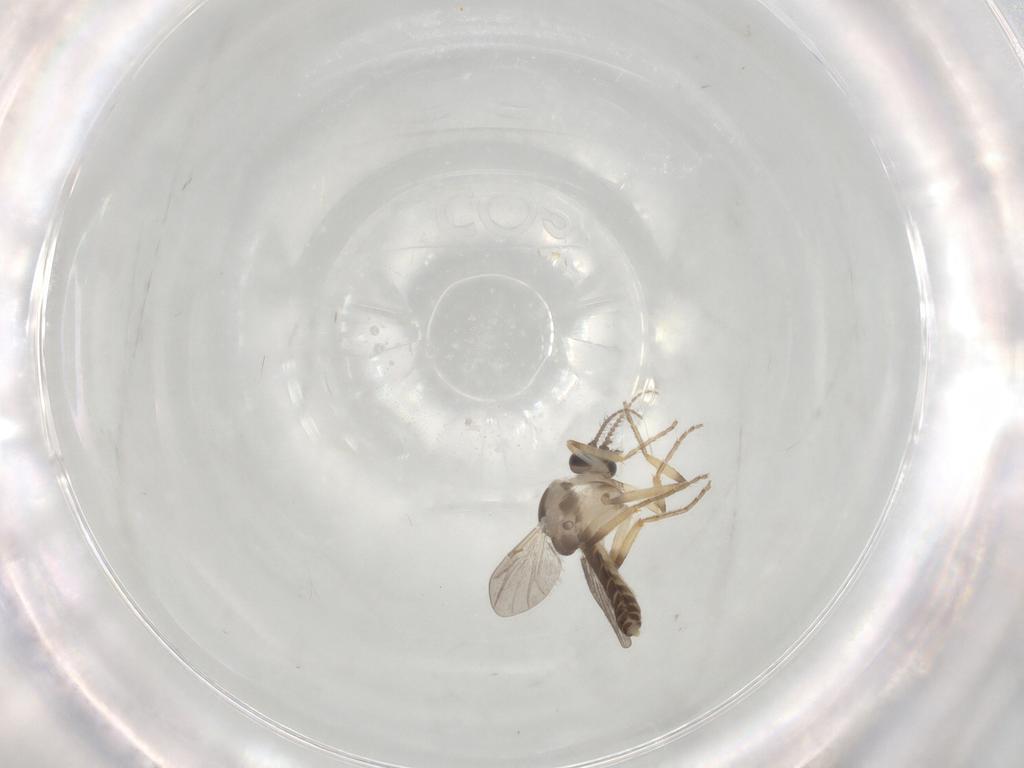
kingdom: Animalia
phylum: Arthropoda
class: Insecta
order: Diptera
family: Ceratopogonidae
